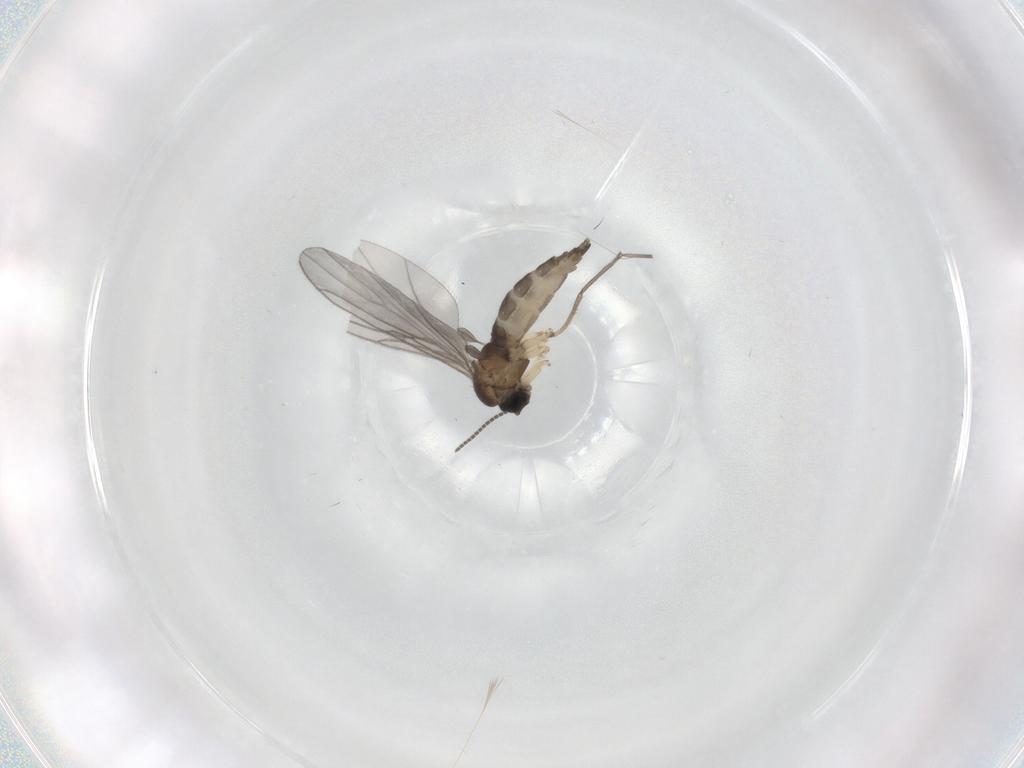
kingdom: Animalia
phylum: Arthropoda
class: Insecta
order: Diptera
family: Sciaridae
